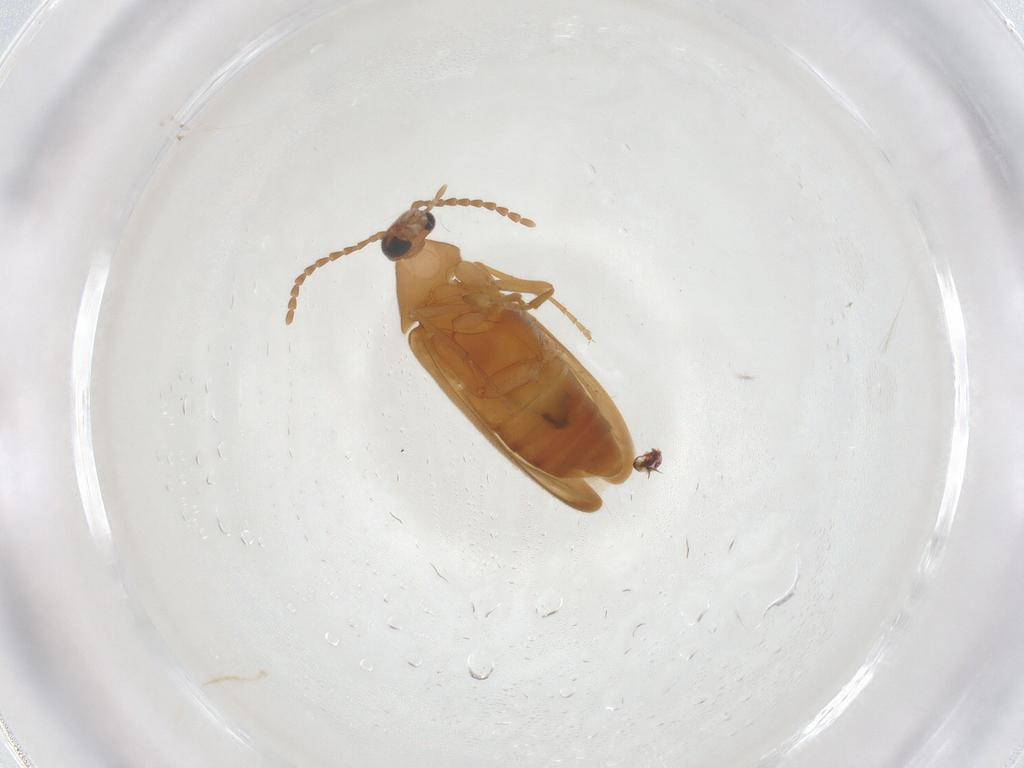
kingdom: Animalia
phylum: Arthropoda
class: Insecta
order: Coleoptera
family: Scraptiidae
